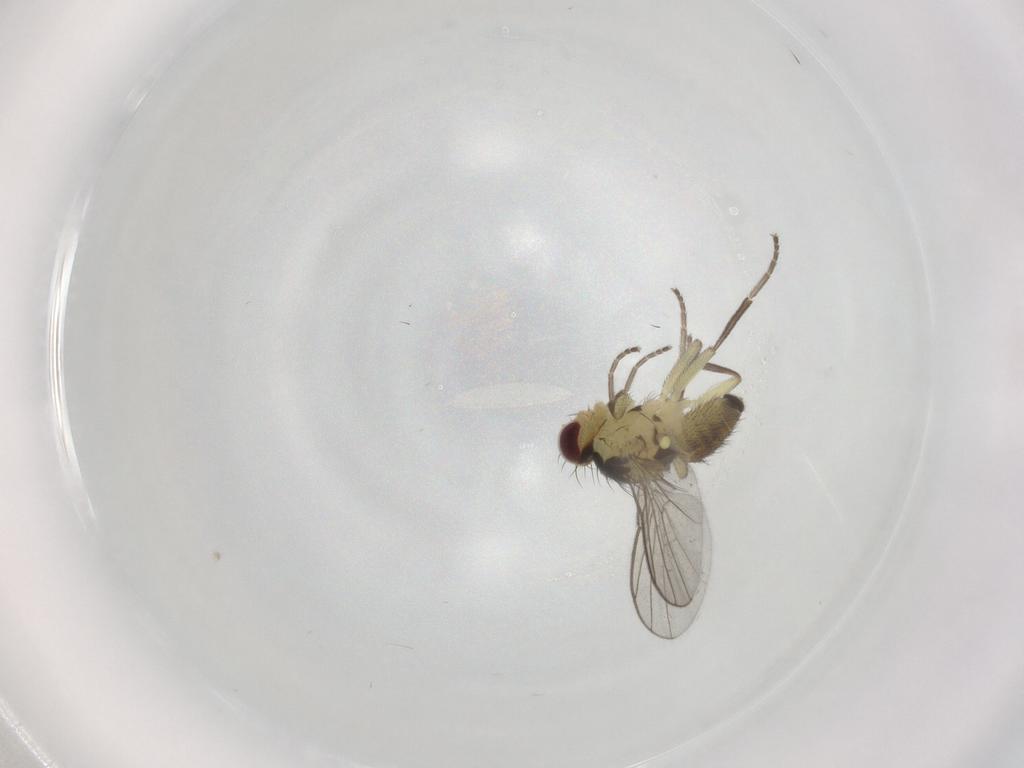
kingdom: Animalia
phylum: Arthropoda
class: Insecta
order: Diptera
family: Agromyzidae
